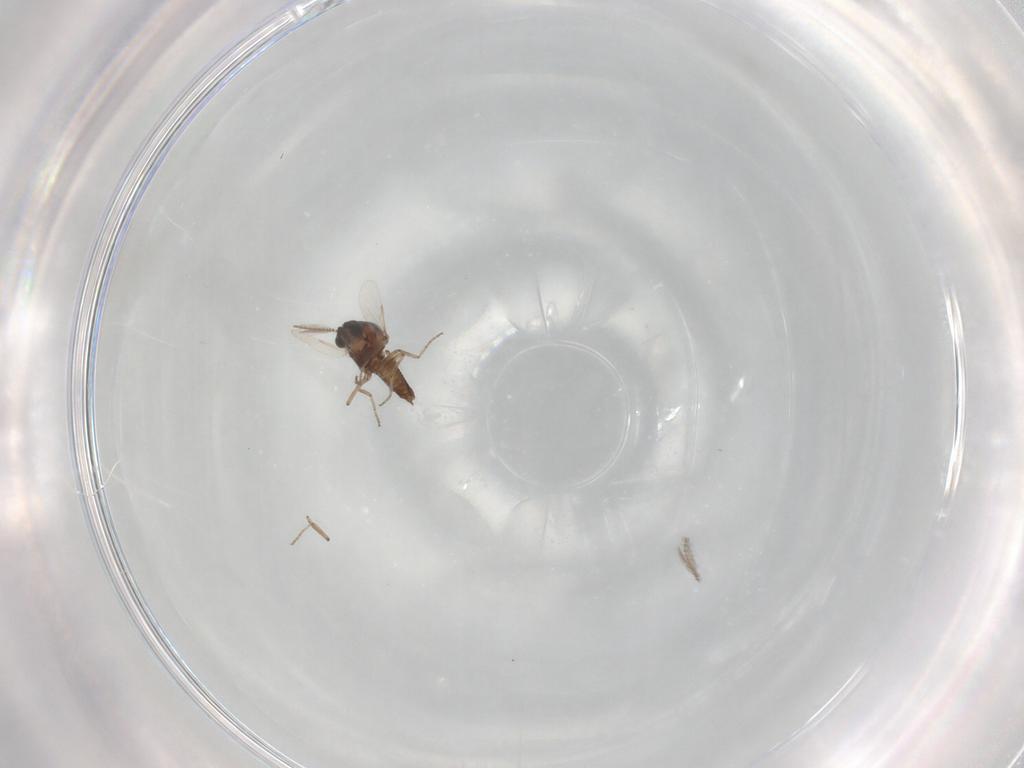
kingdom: Animalia
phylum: Arthropoda
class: Insecta
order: Diptera
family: Ceratopogonidae
